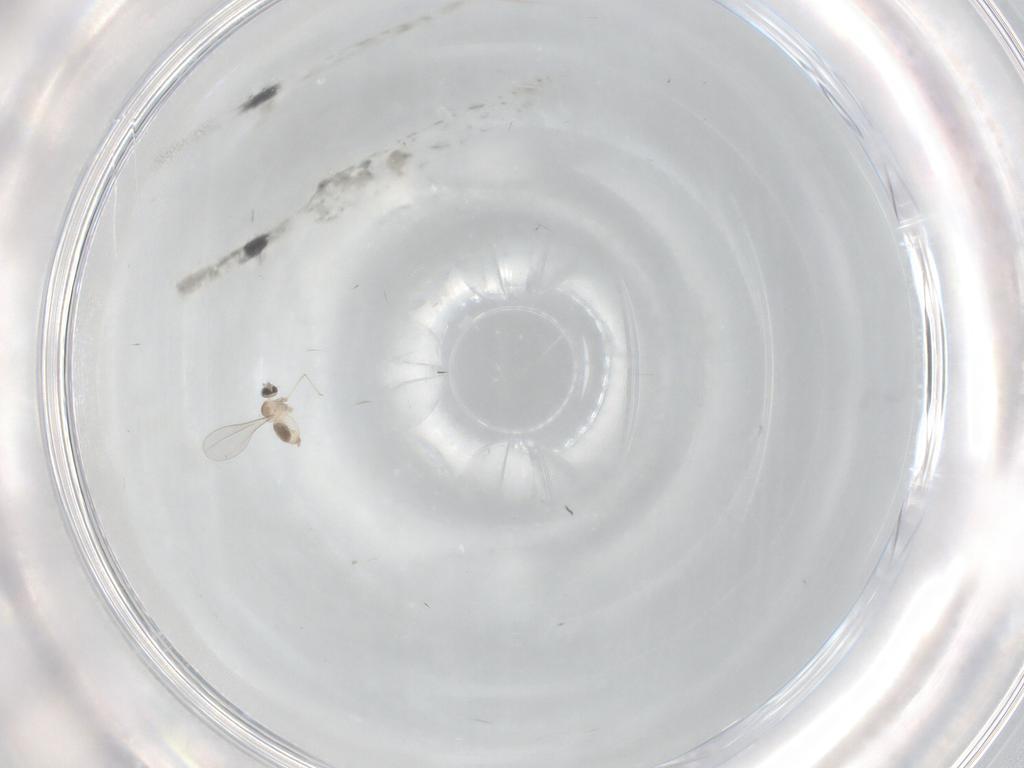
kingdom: Animalia
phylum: Arthropoda
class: Insecta
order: Diptera
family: Cecidomyiidae
